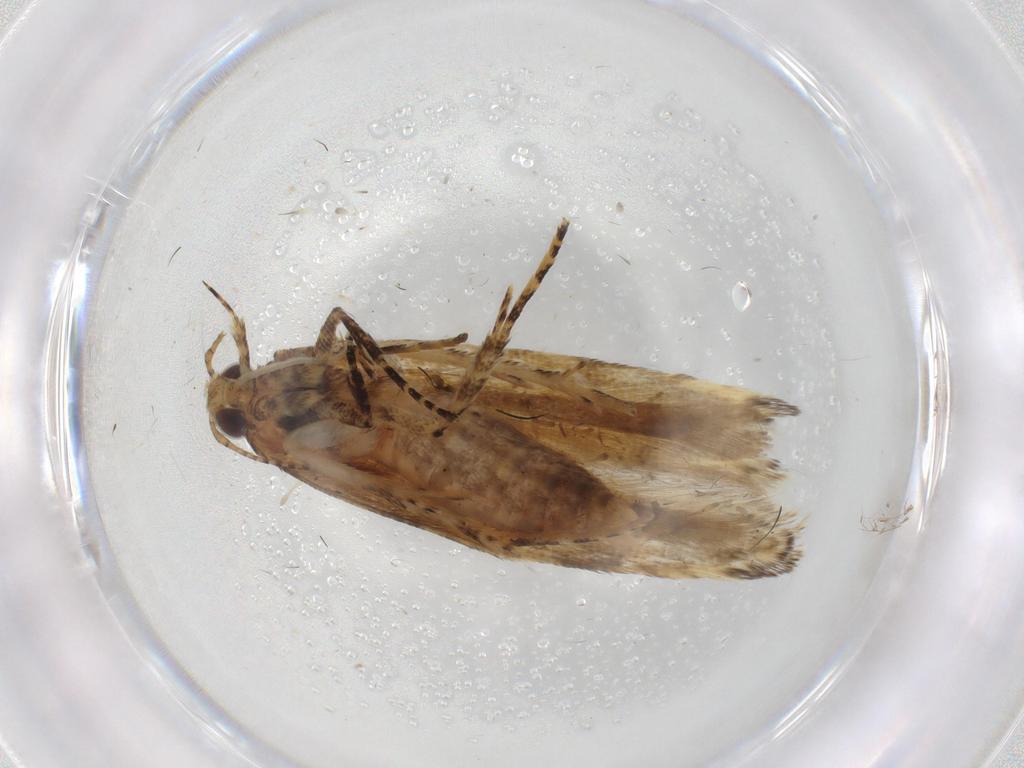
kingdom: Animalia
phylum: Arthropoda
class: Insecta
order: Lepidoptera
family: Gelechiidae
